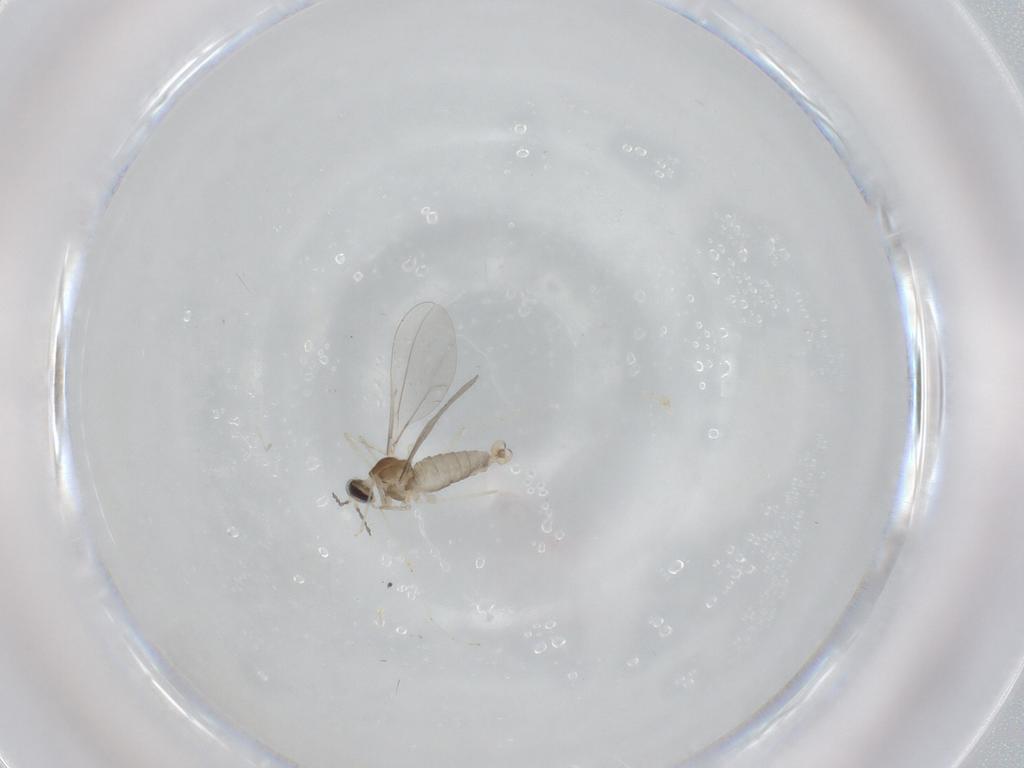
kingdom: Animalia
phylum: Arthropoda
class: Insecta
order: Diptera
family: Cecidomyiidae
